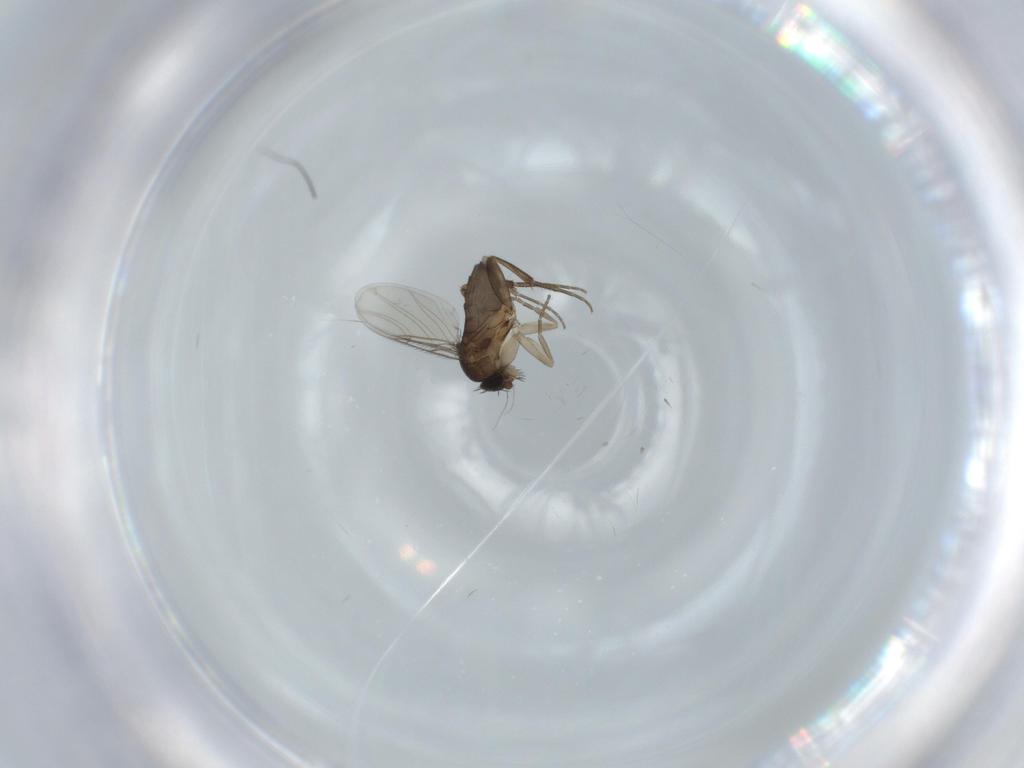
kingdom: Animalia
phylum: Arthropoda
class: Insecta
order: Diptera
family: Phoridae
